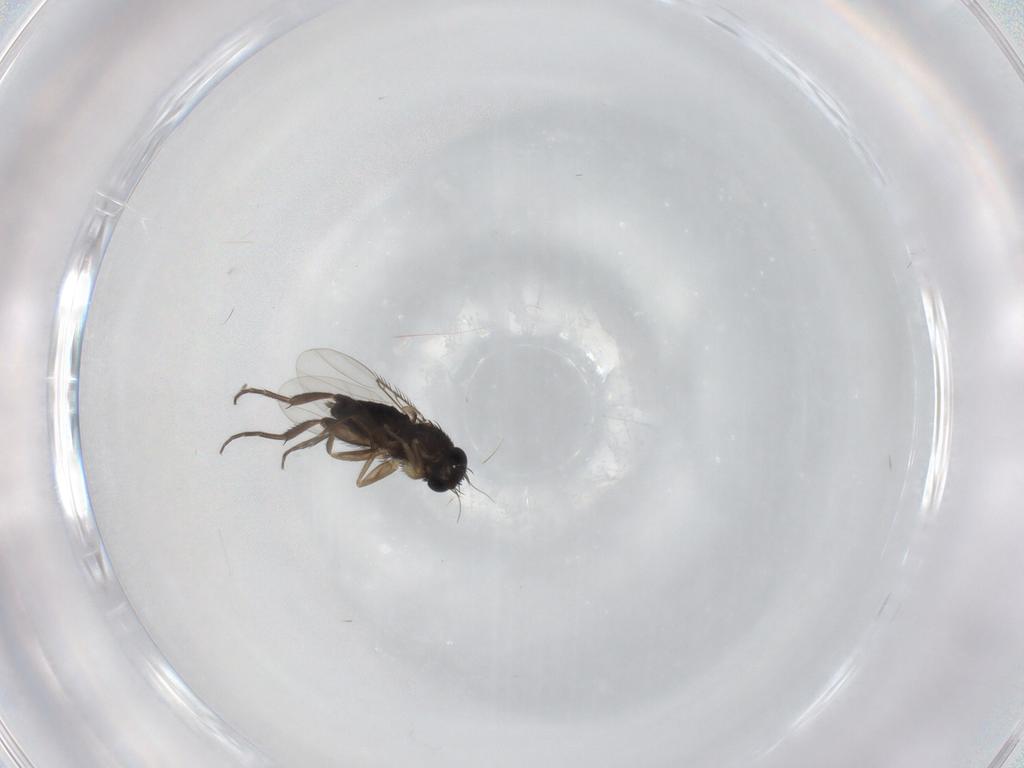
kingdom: Animalia
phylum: Arthropoda
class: Insecta
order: Diptera
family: Phoridae
